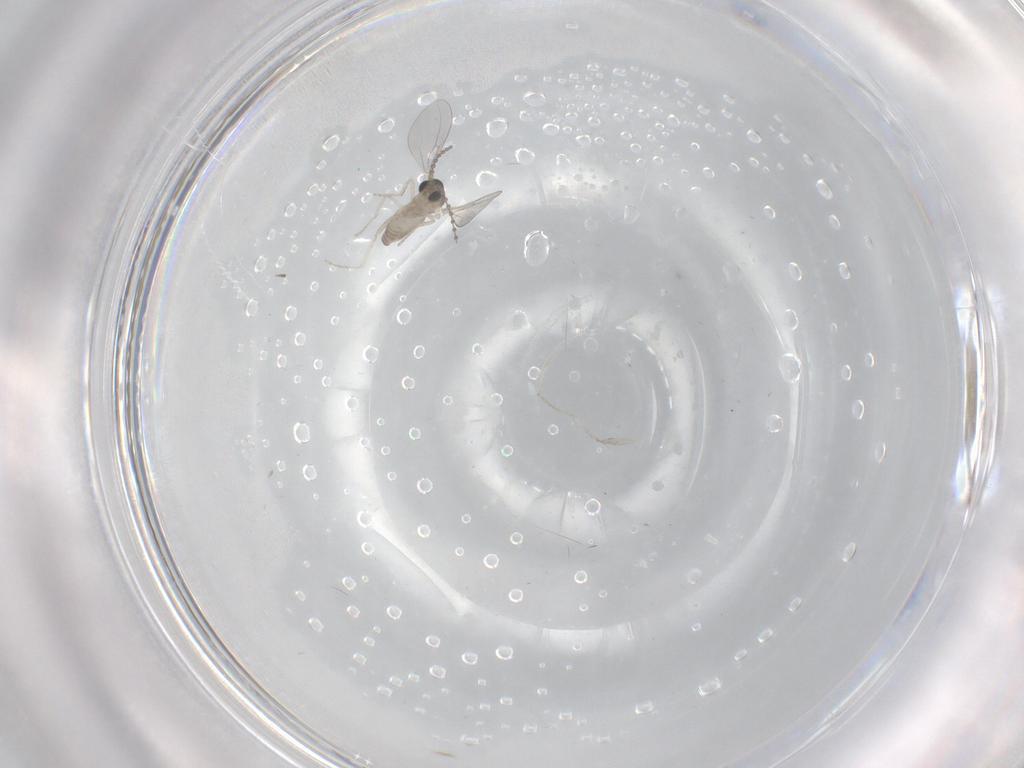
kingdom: Animalia
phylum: Arthropoda
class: Insecta
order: Diptera
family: Cecidomyiidae
